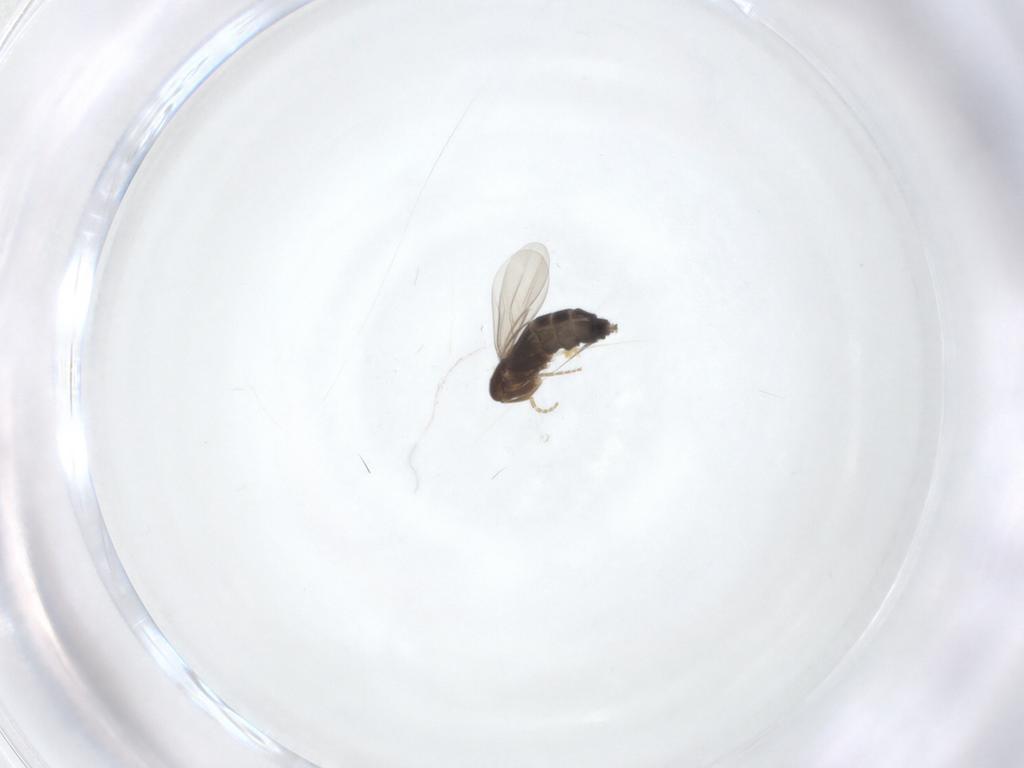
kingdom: Animalia
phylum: Arthropoda
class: Insecta
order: Diptera
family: Phoridae
